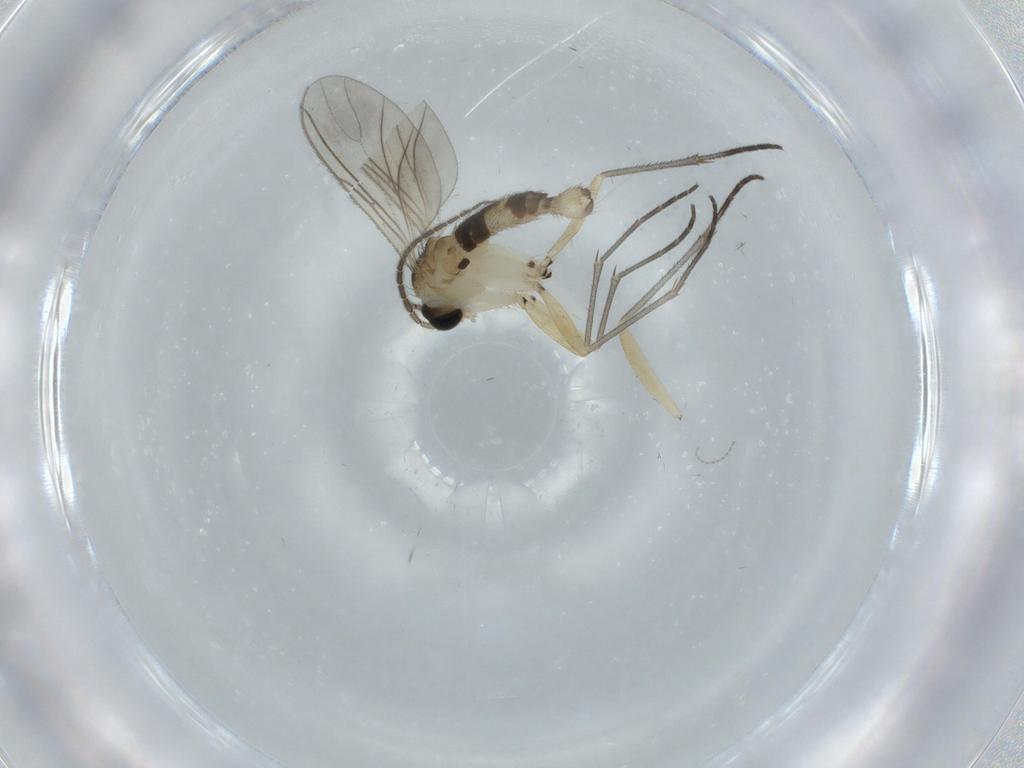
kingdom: Animalia
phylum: Arthropoda
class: Insecta
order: Diptera
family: Sciaridae
